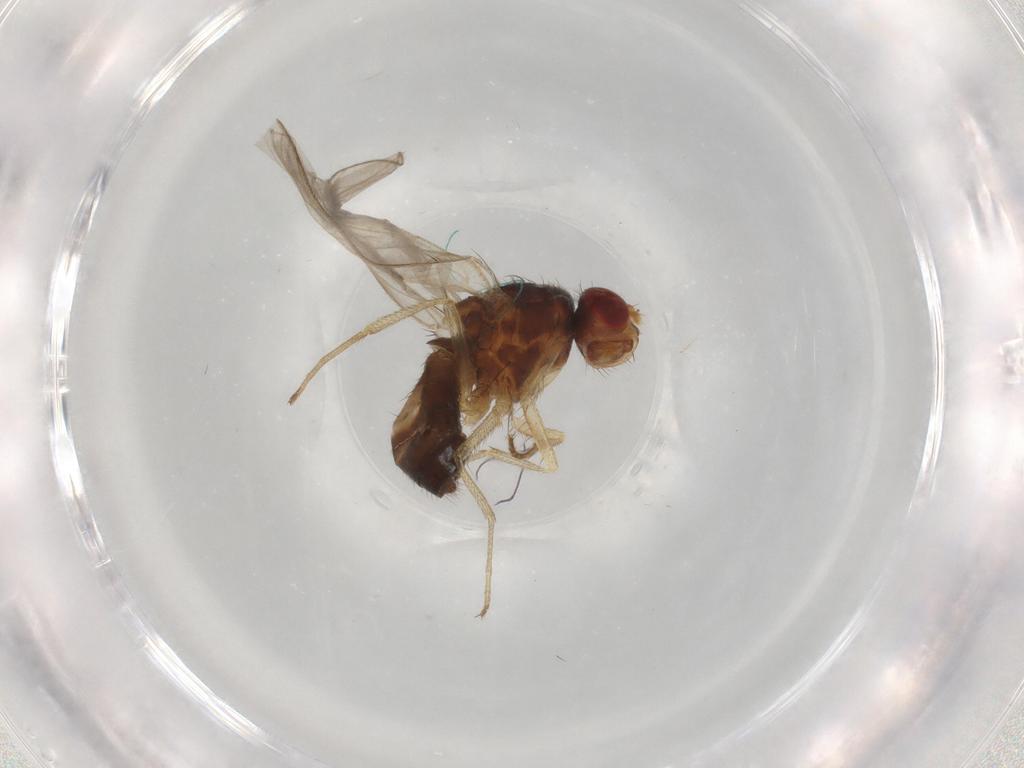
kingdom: Animalia
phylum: Arthropoda
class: Insecta
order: Diptera
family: Drosophilidae
